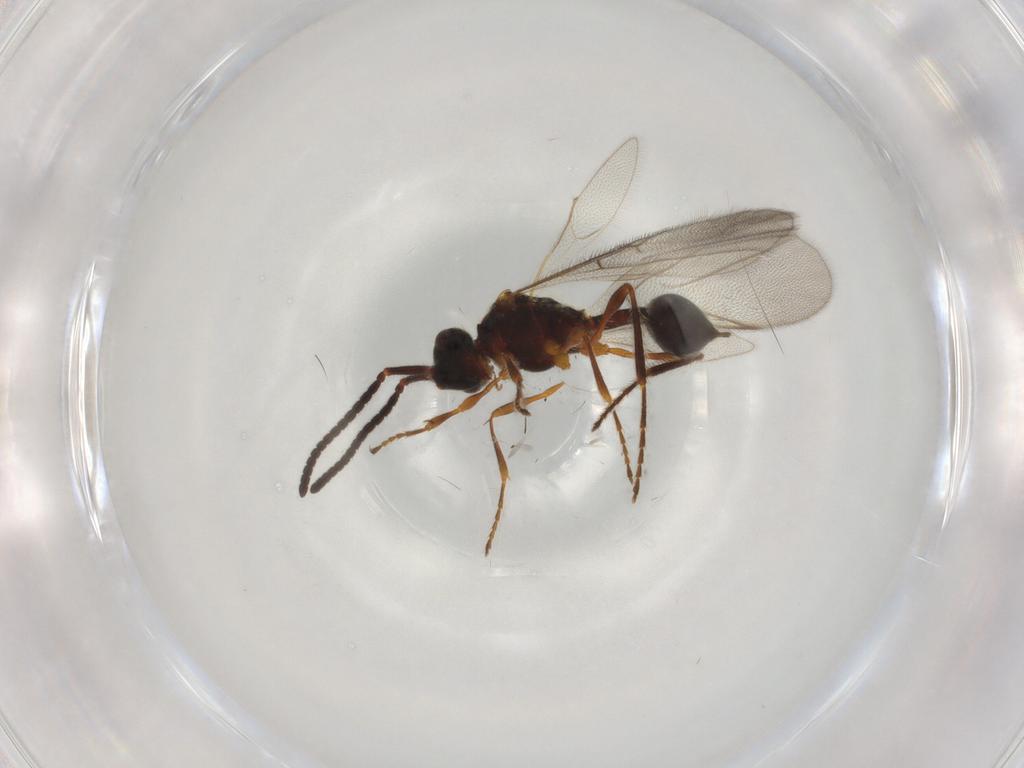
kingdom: Animalia
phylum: Arthropoda
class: Insecta
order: Hymenoptera
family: Diapriidae
